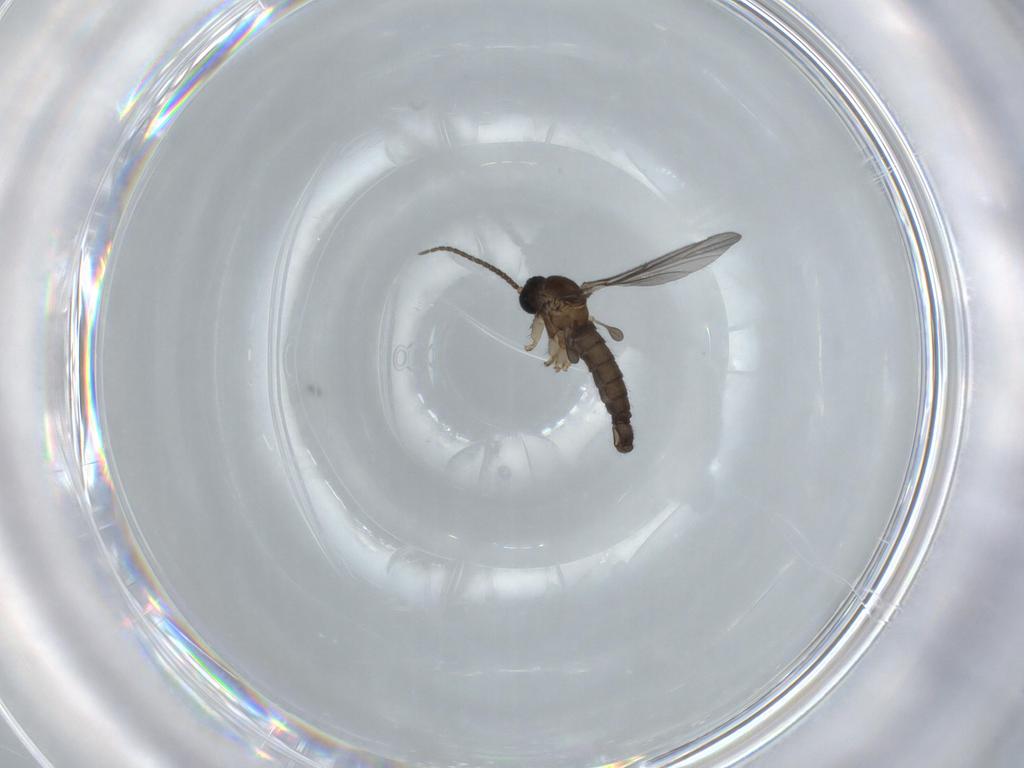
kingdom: Animalia
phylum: Arthropoda
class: Insecta
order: Diptera
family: Sciaridae
